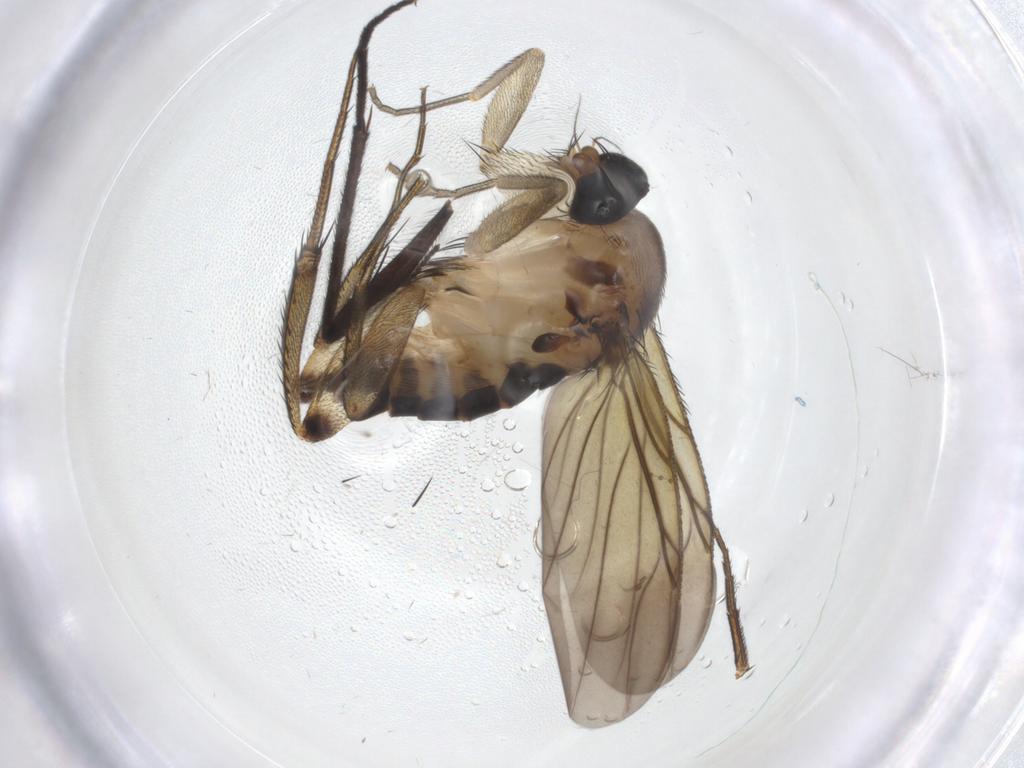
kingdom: Animalia
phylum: Arthropoda
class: Insecta
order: Diptera
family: Sciaridae
